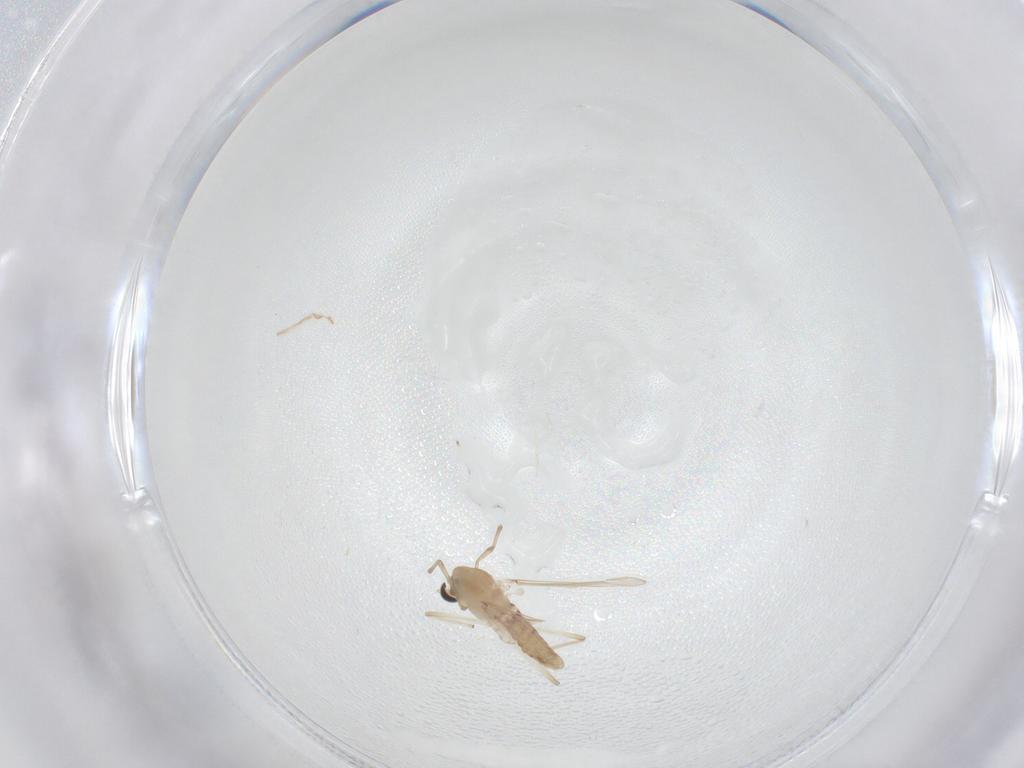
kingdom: Animalia
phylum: Arthropoda
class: Insecta
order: Diptera
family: Chironomidae
